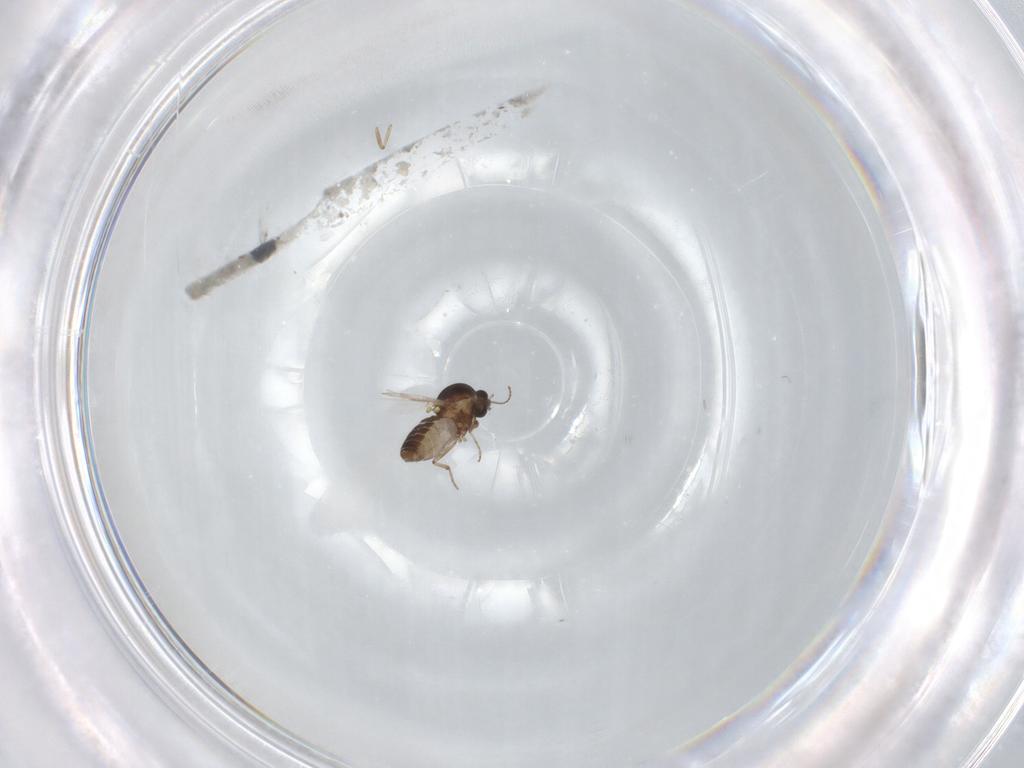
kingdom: Animalia
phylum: Arthropoda
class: Insecta
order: Diptera
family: Ceratopogonidae
